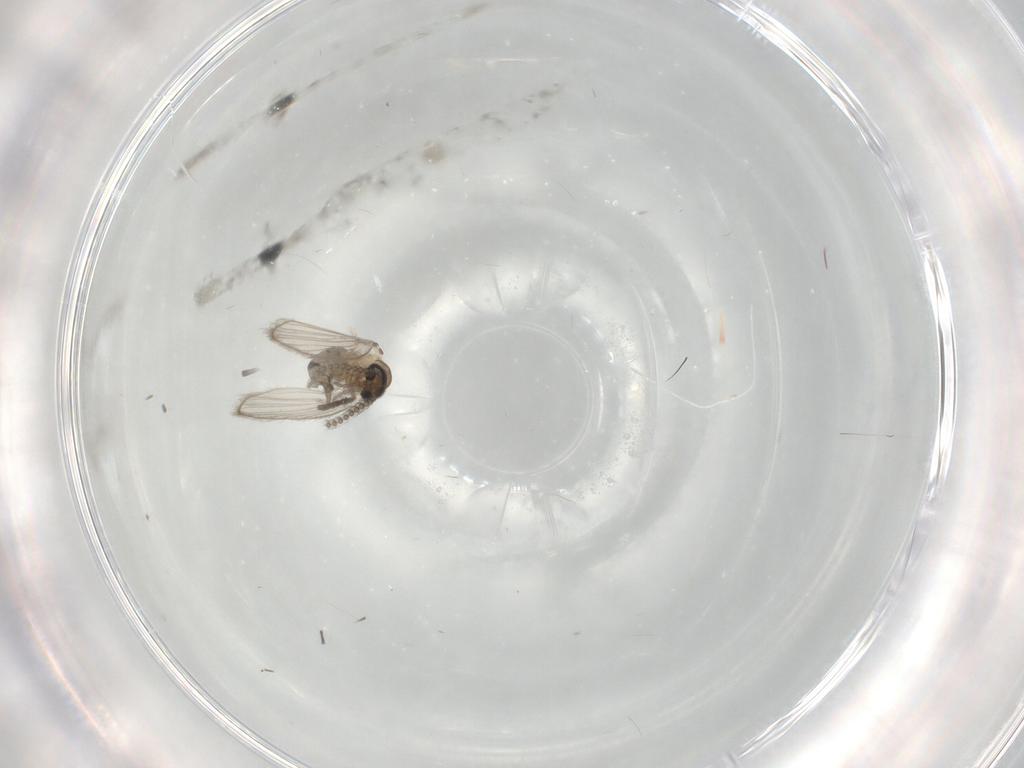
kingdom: Animalia
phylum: Arthropoda
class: Insecta
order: Diptera
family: Psychodidae
